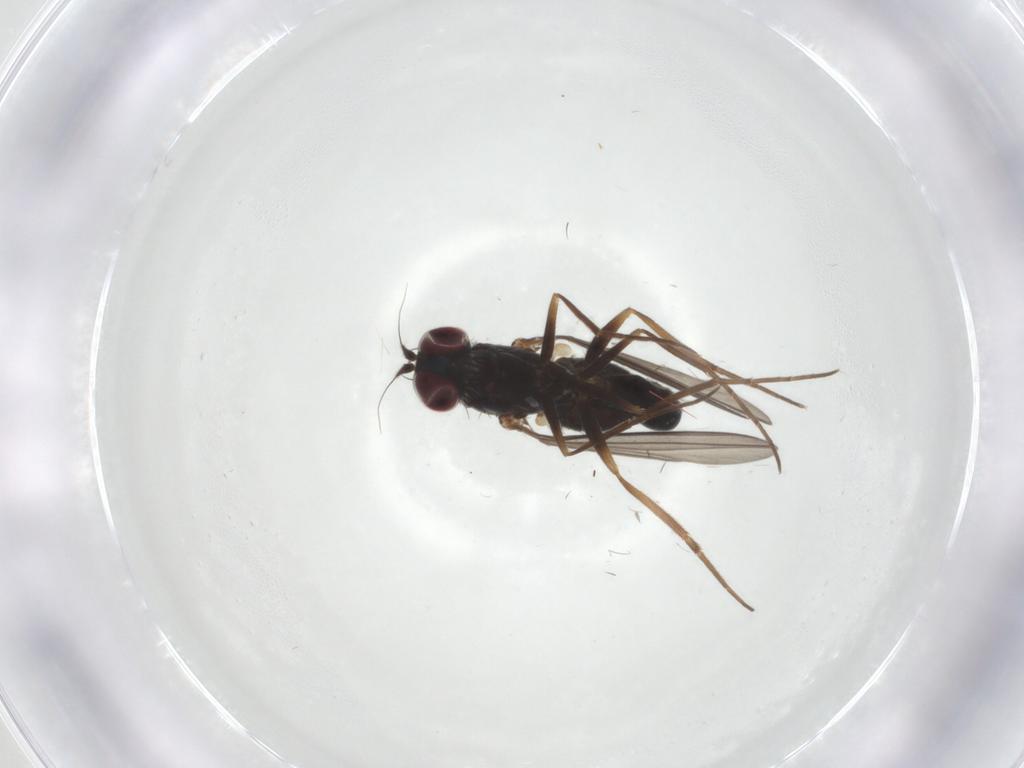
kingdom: Animalia
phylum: Arthropoda
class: Insecta
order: Diptera
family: Dolichopodidae
